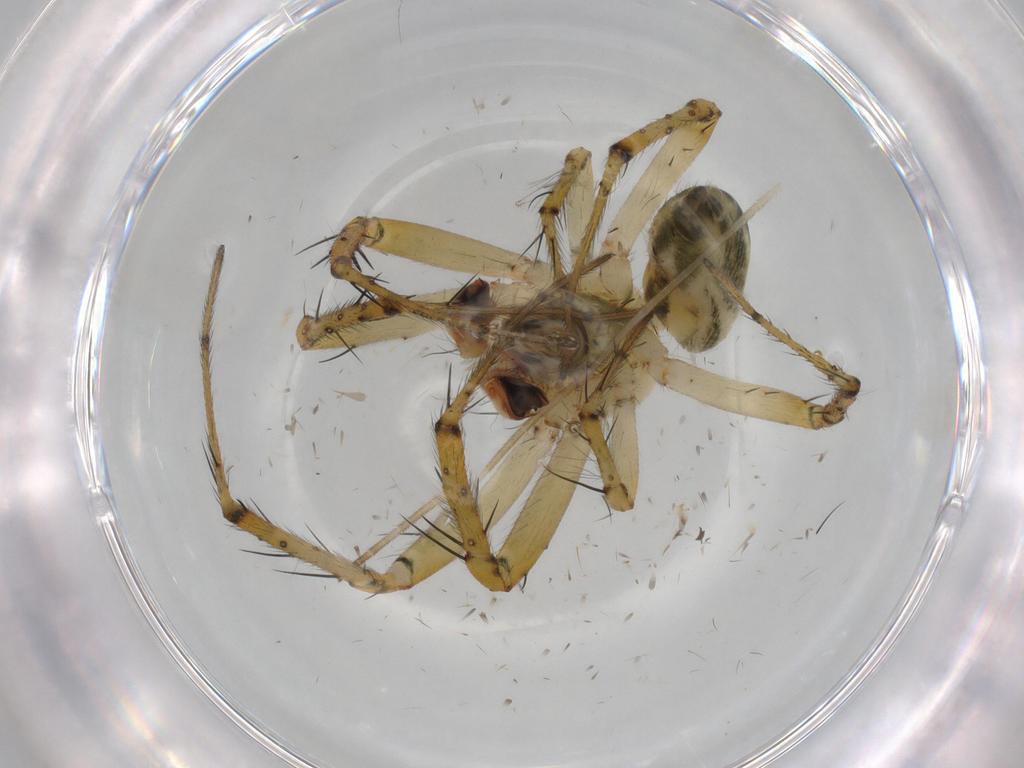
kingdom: Animalia
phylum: Arthropoda
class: Arachnida
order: Araneae
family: Araneidae
